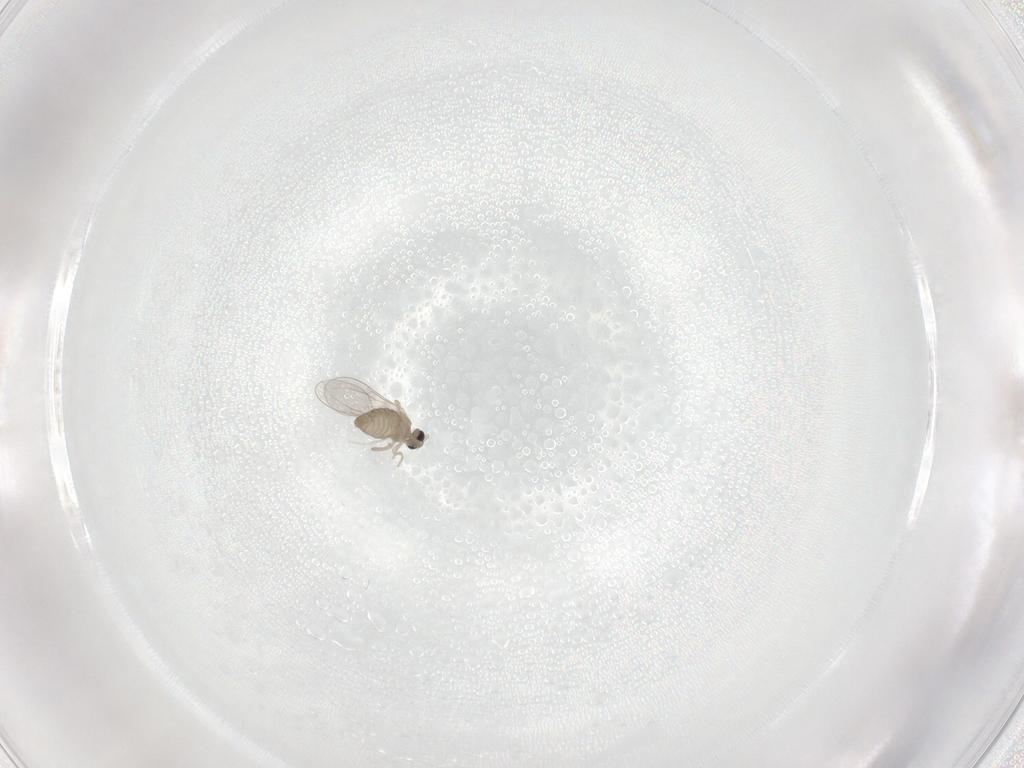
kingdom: Animalia
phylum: Arthropoda
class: Insecta
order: Diptera
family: Cecidomyiidae
